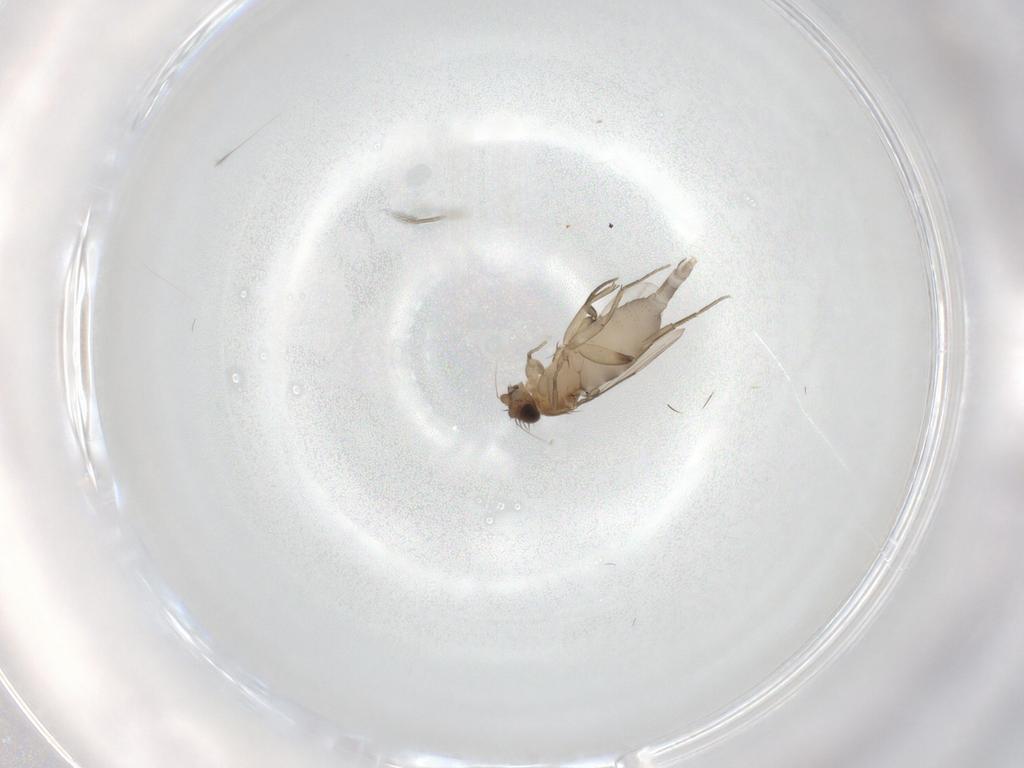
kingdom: Animalia
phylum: Arthropoda
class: Insecta
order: Diptera
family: Phoridae
